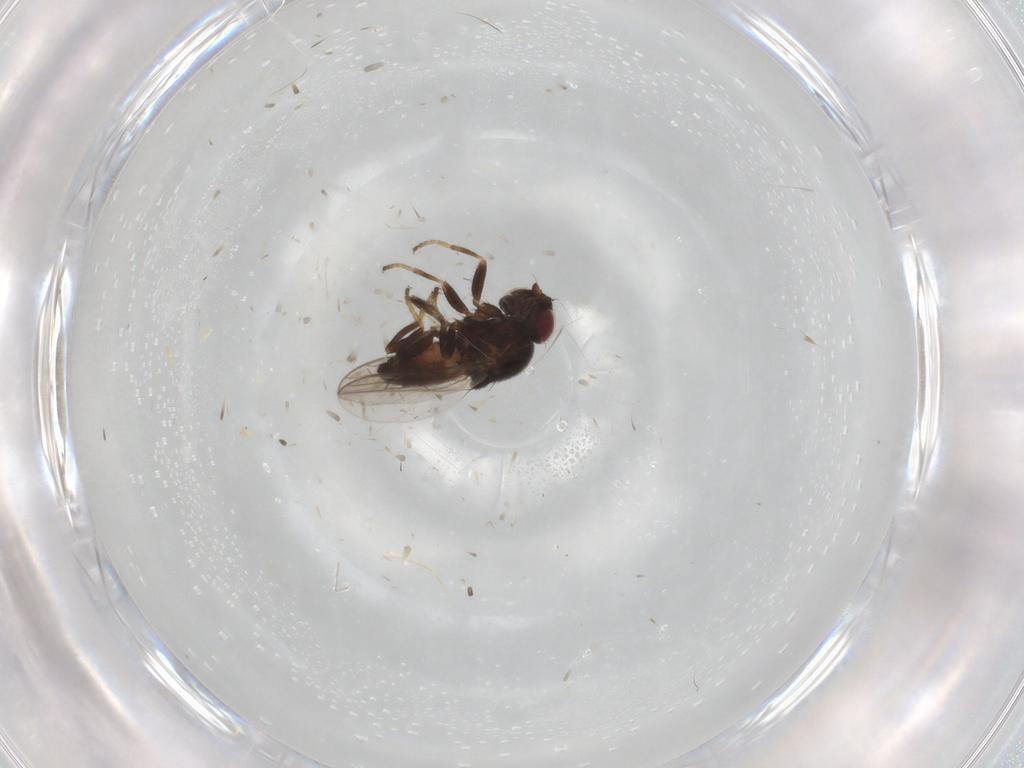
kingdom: Animalia
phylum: Arthropoda
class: Insecta
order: Diptera
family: Chloropidae
